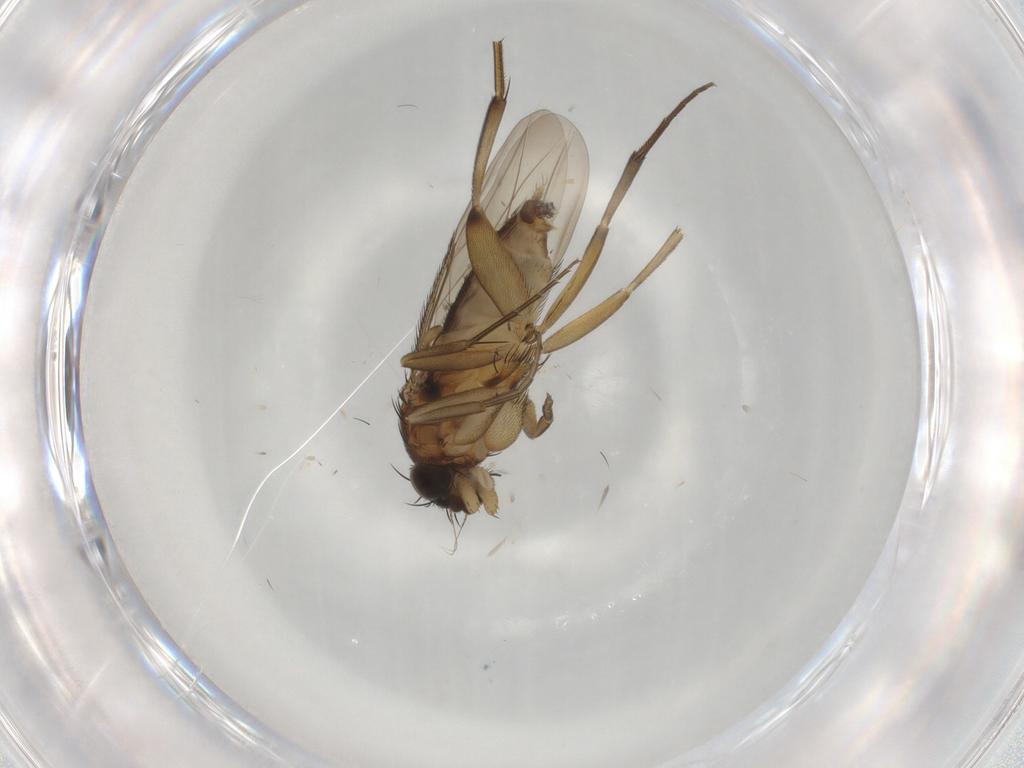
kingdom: Animalia
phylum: Arthropoda
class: Insecta
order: Diptera
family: Phoridae
